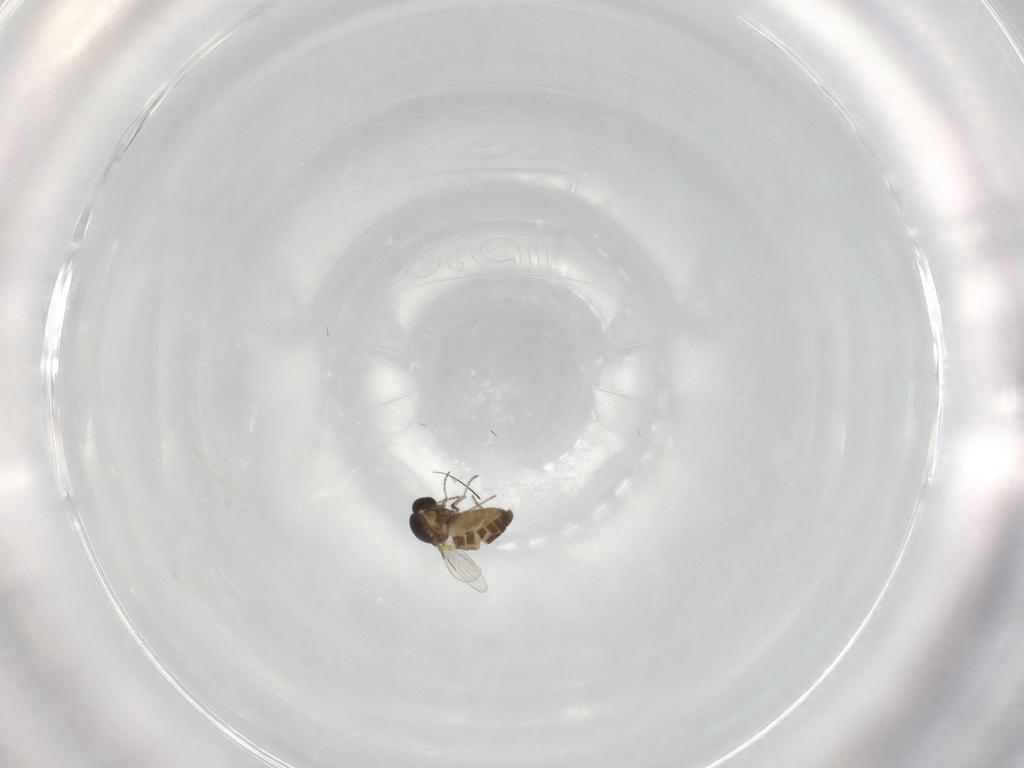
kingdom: Animalia
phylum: Arthropoda
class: Insecta
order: Diptera
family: Ceratopogonidae
